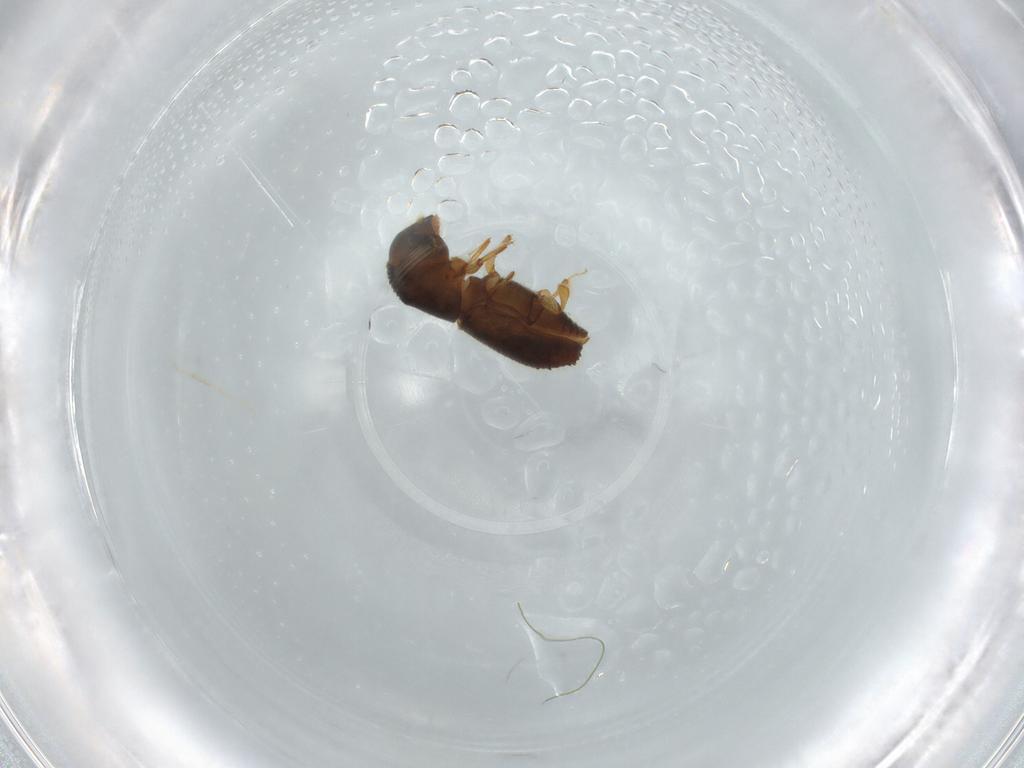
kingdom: Animalia
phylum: Arthropoda
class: Insecta
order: Coleoptera
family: Curculionidae
